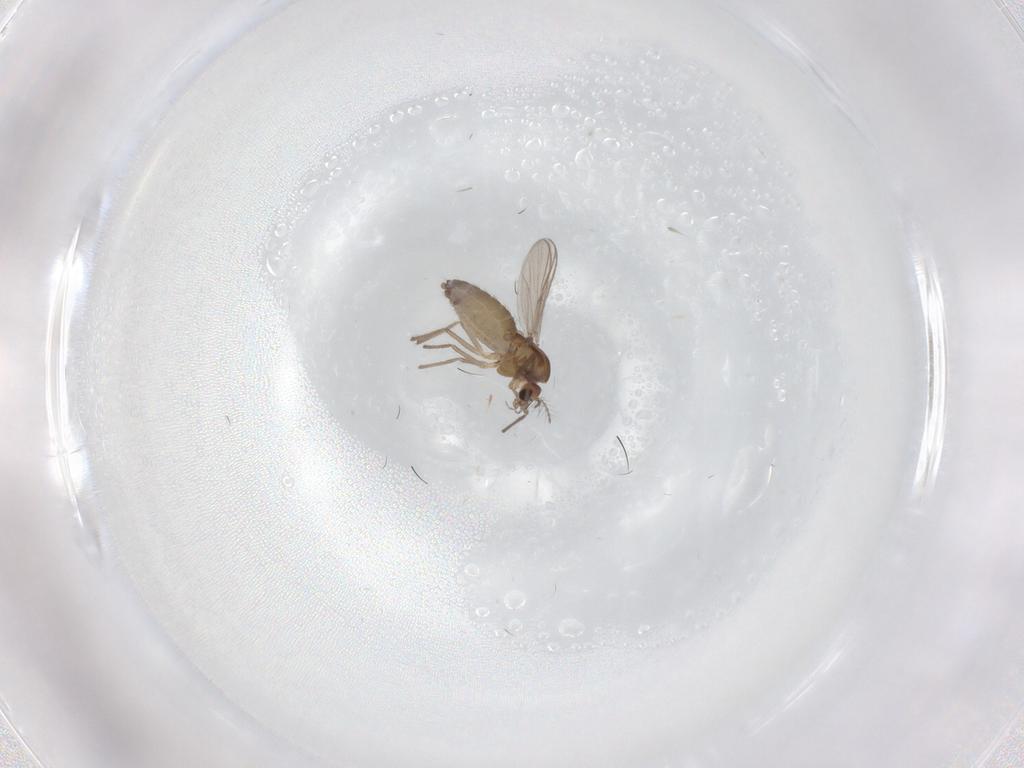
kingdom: Animalia
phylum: Arthropoda
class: Insecta
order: Diptera
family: Chironomidae
